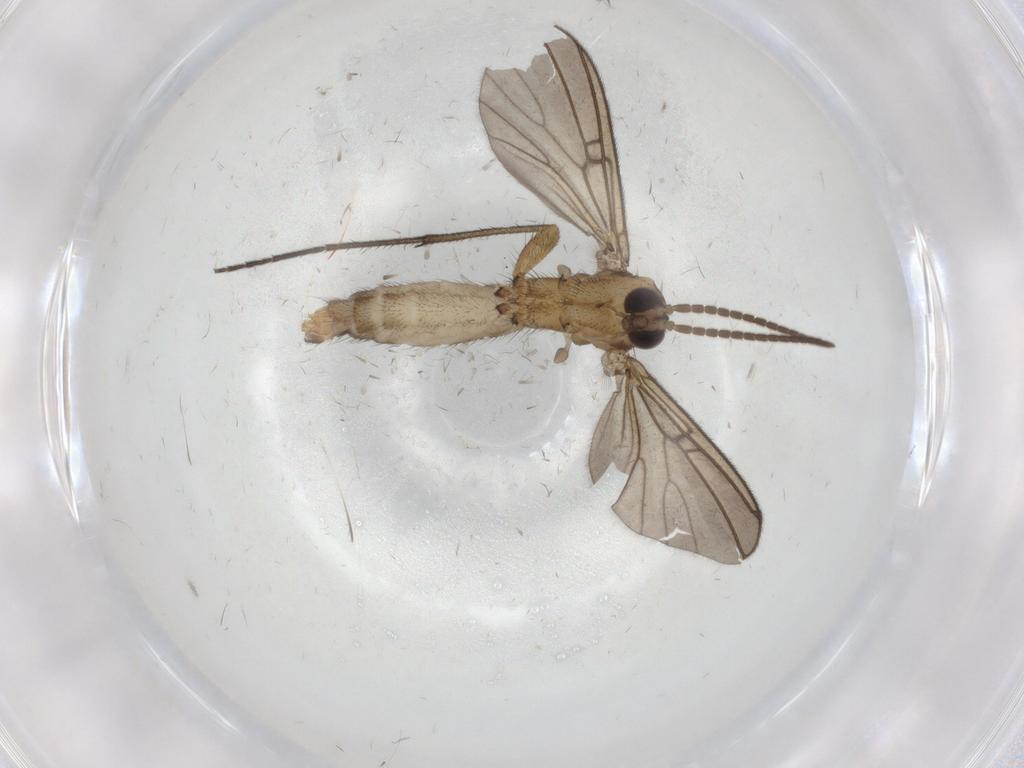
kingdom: Animalia
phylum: Arthropoda
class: Insecta
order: Diptera
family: Mycetophilidae
